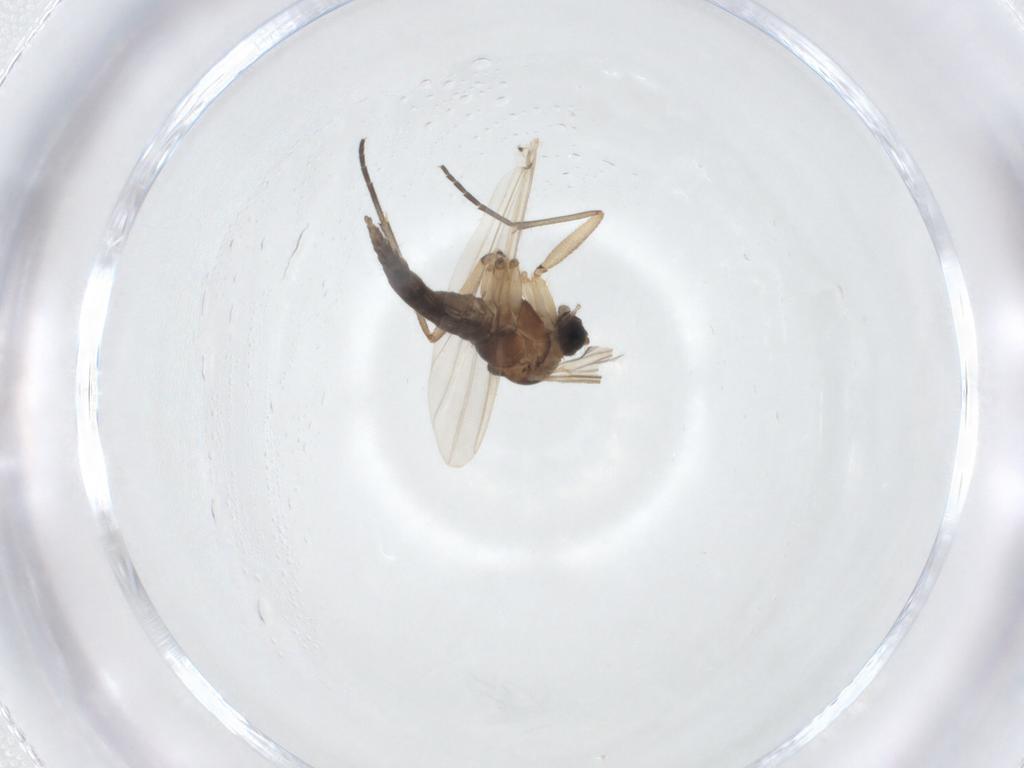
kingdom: Animalia
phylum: Arthropoda
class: Insecta
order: Diptera
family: Sciaridae
